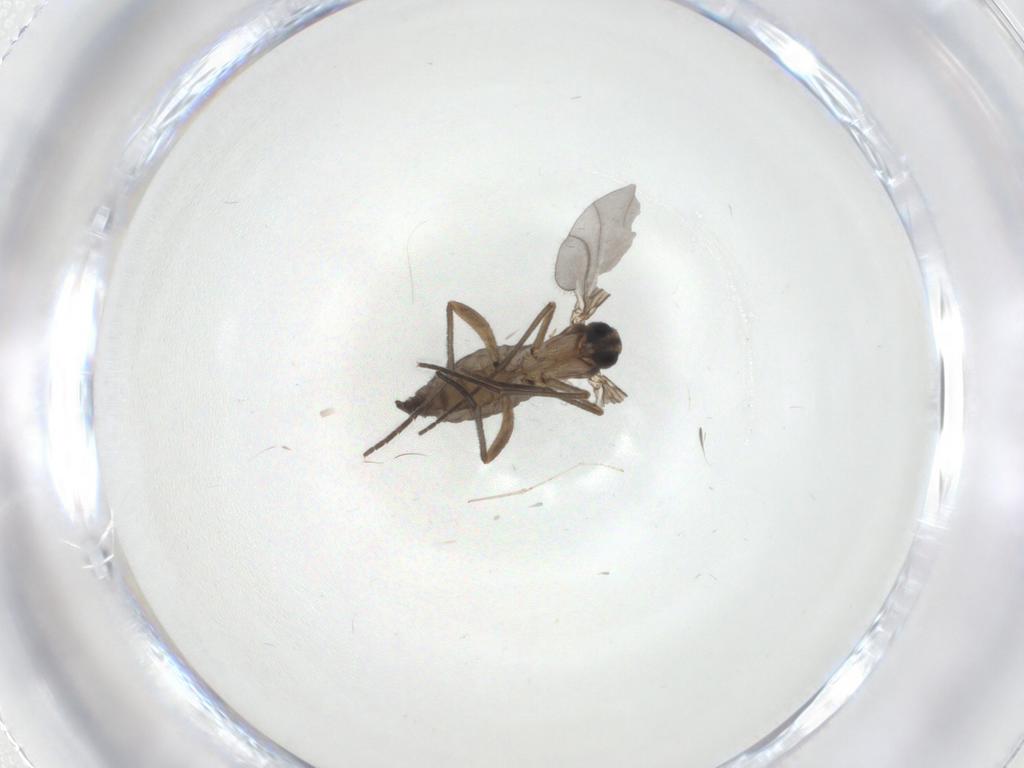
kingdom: Animalia
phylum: Arthropoda
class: Insecta
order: Diptera
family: Sciaridae
